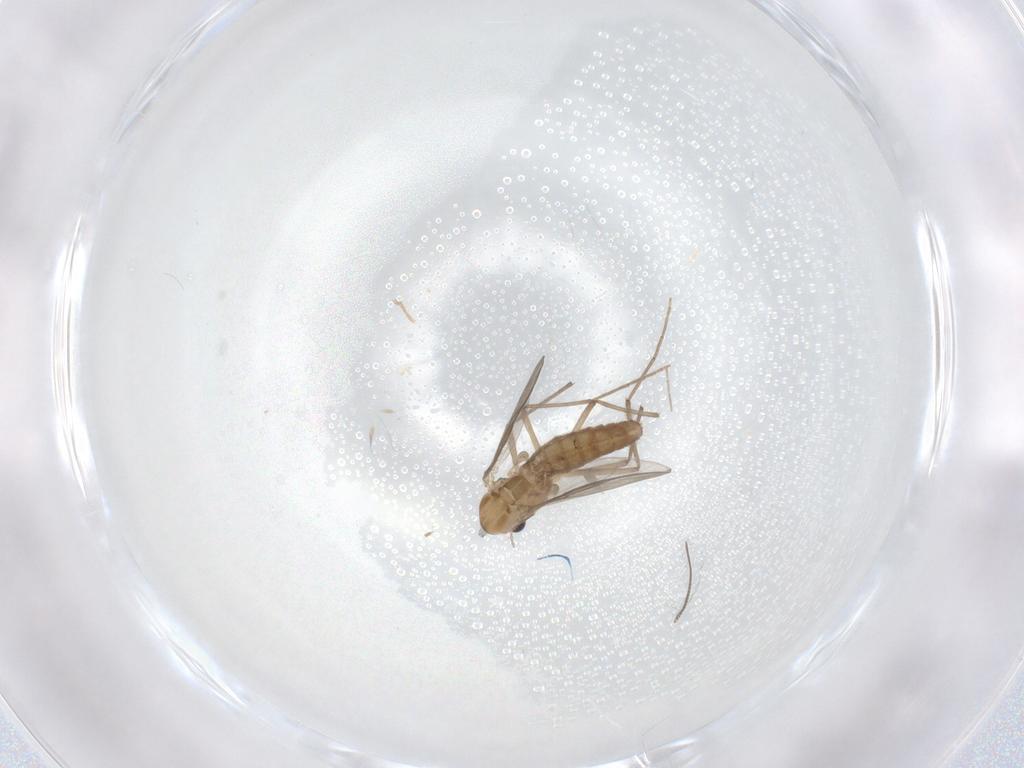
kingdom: Animalia
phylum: Arthropoda
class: Insecta
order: Diptera
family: Chironomidae
